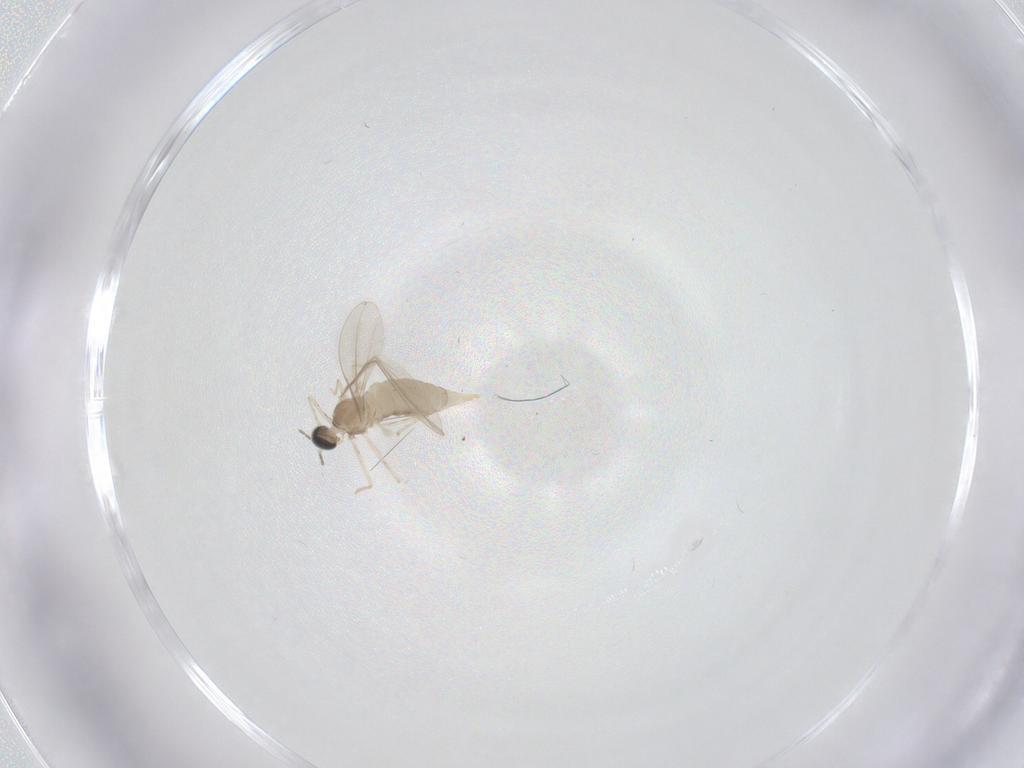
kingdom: Animalia
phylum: Arthropoda
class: Insecta
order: Diptera
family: Cecidomyiidae
